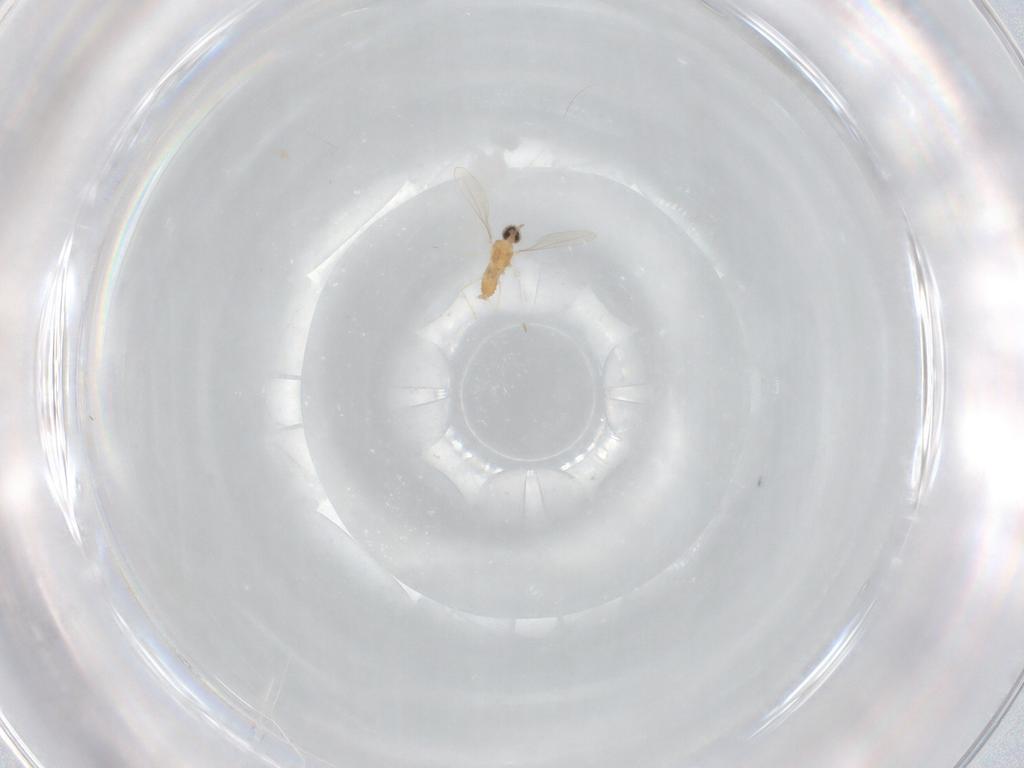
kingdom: Animalia
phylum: Arthropoda
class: Insecta
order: Diptera
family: Cecidomyiidae
